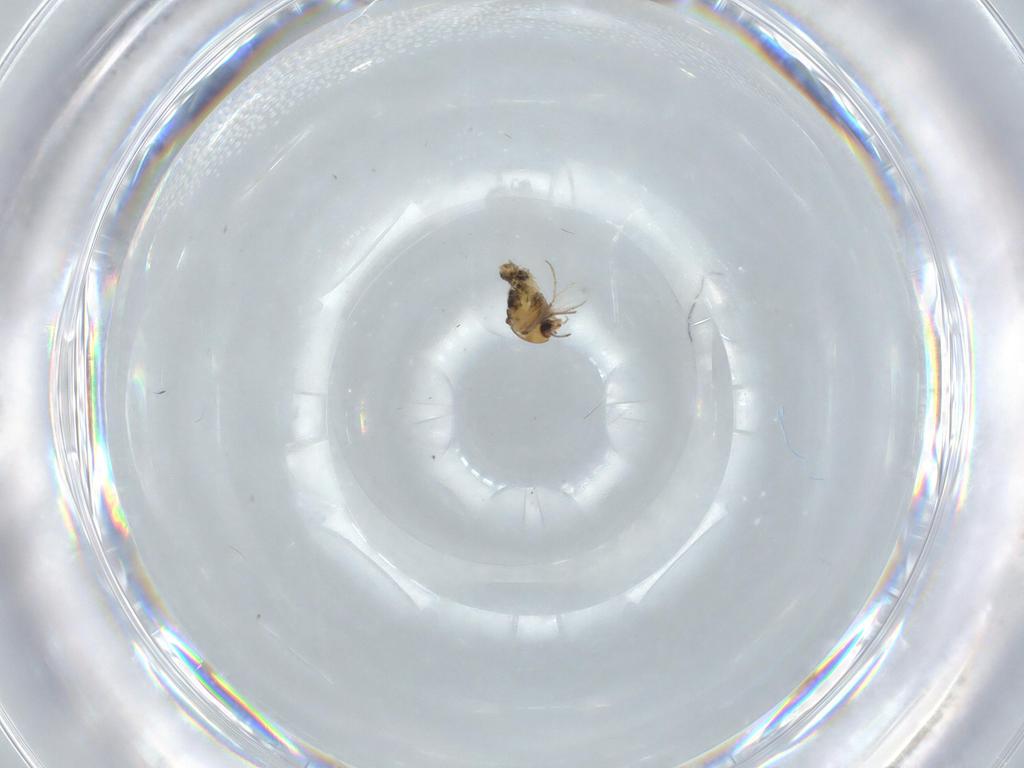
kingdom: Animalia
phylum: Arthropoda
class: Insecta
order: Diptera
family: Chironomidae
